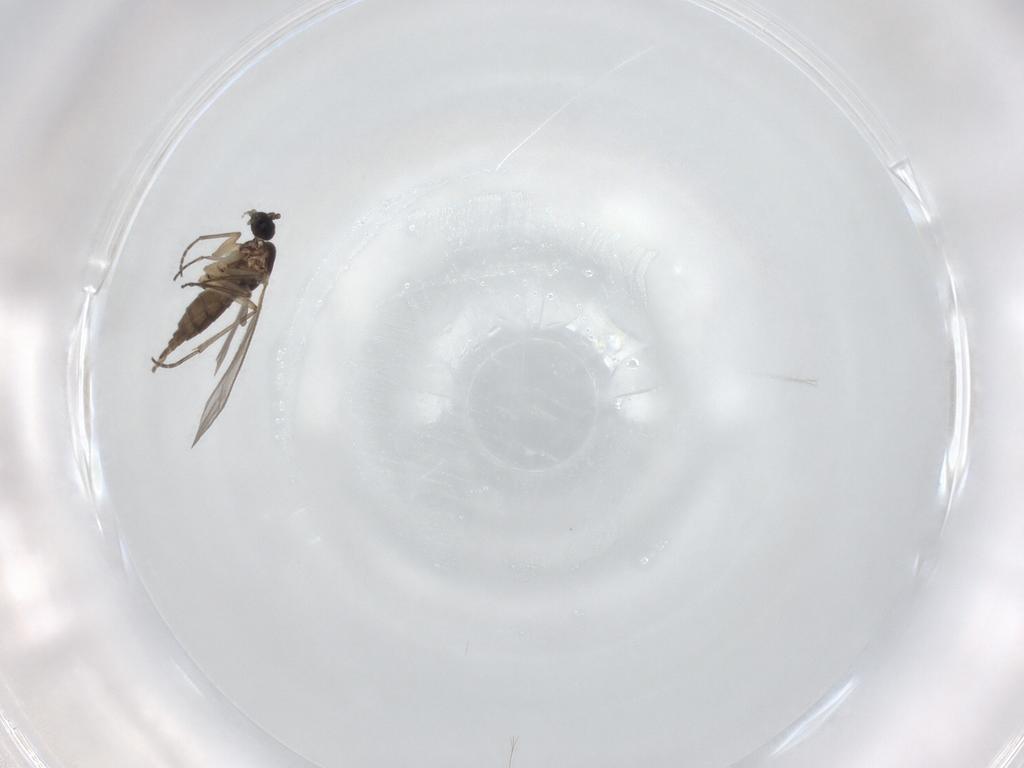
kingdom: Animalia
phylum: Arthropoda
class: Insecta
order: Diptera
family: Sciaridae
